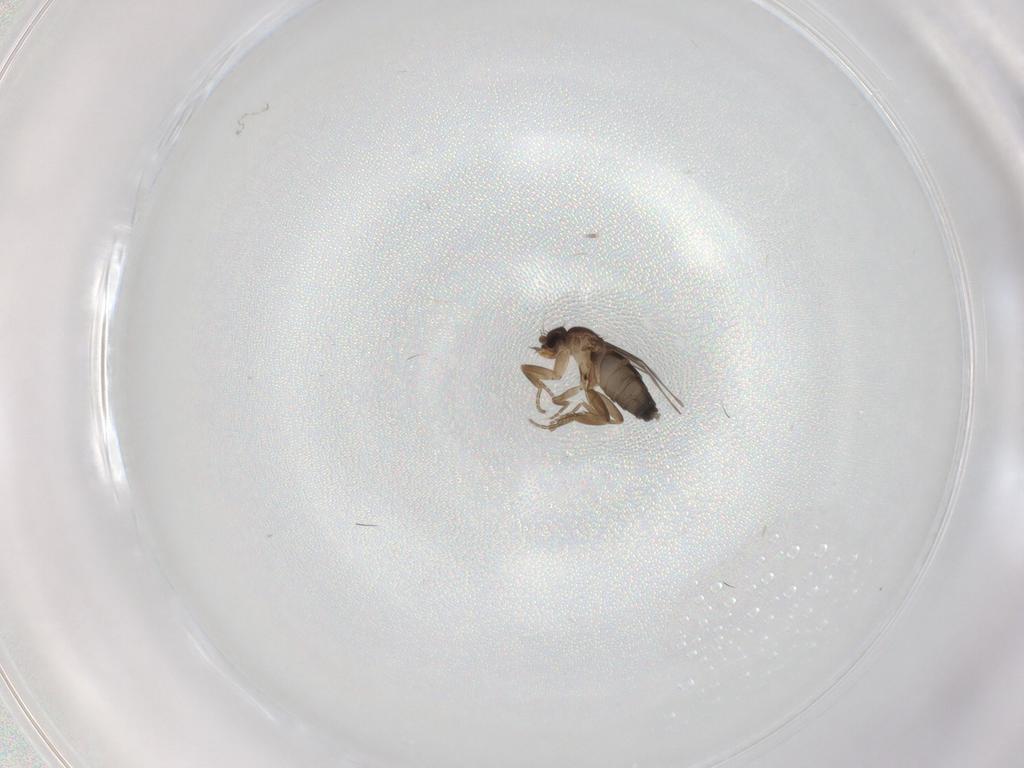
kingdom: Animalia
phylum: Arthropoda
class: Insecta
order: Diptera
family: Phoridae
